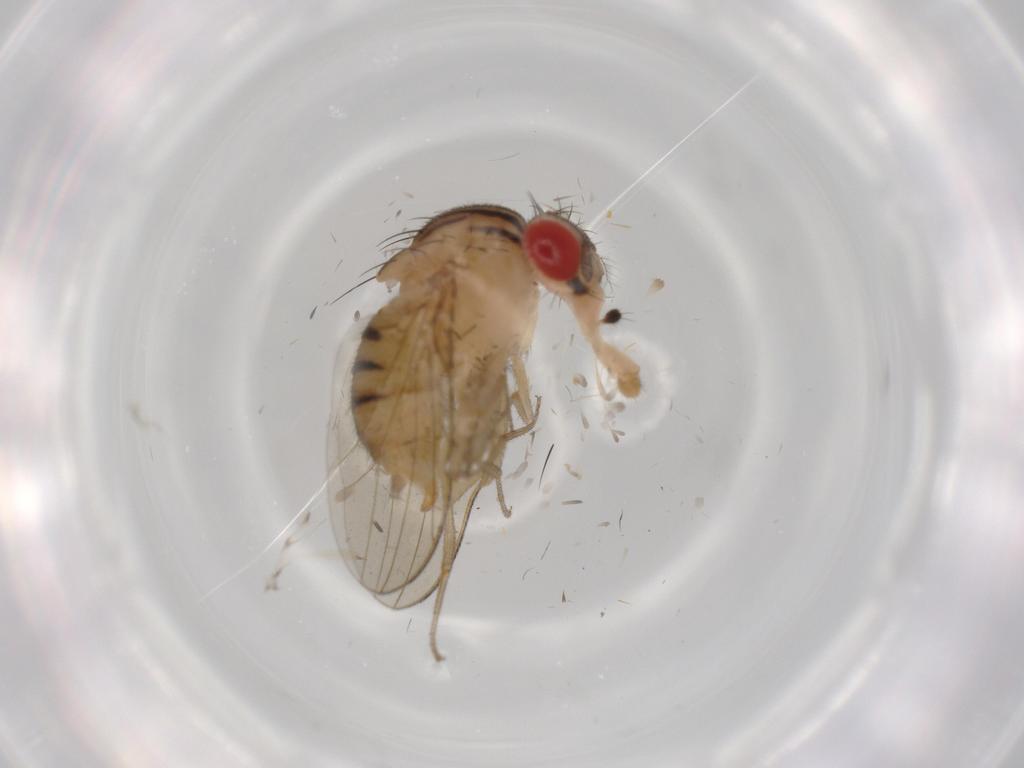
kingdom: Animalia
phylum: Arthropoda
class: Insecta
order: Diptera
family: Drosophilidae
